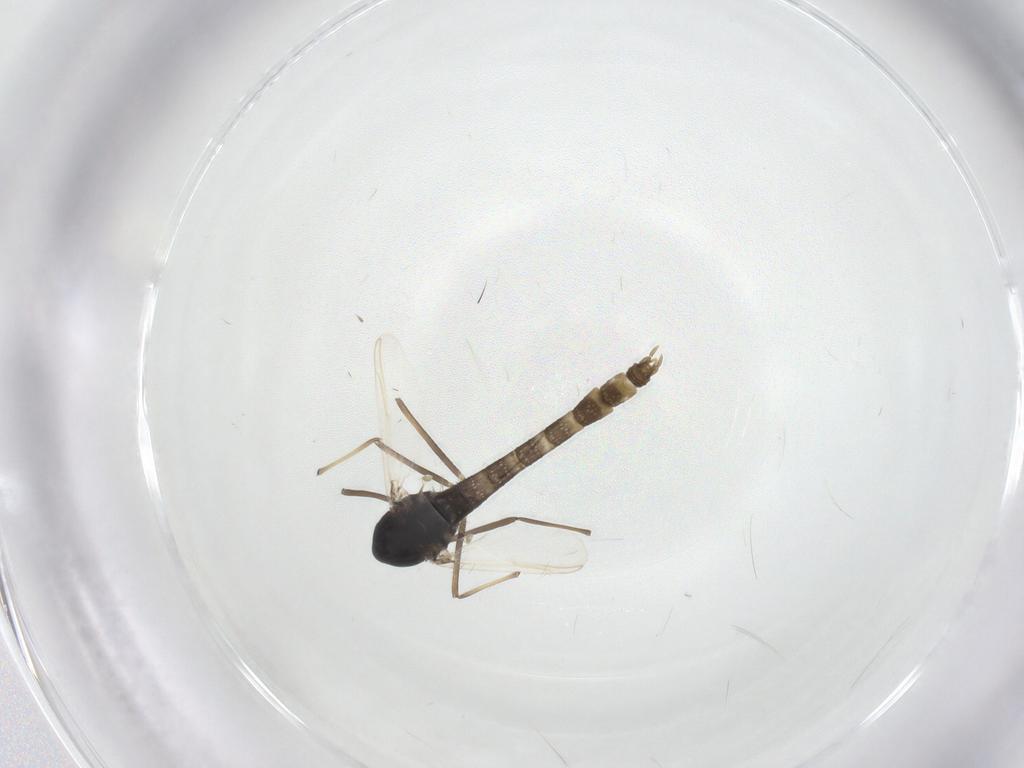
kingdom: Animalia
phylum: Arthropoda
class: Insecta
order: Diptera
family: Chironomidae
